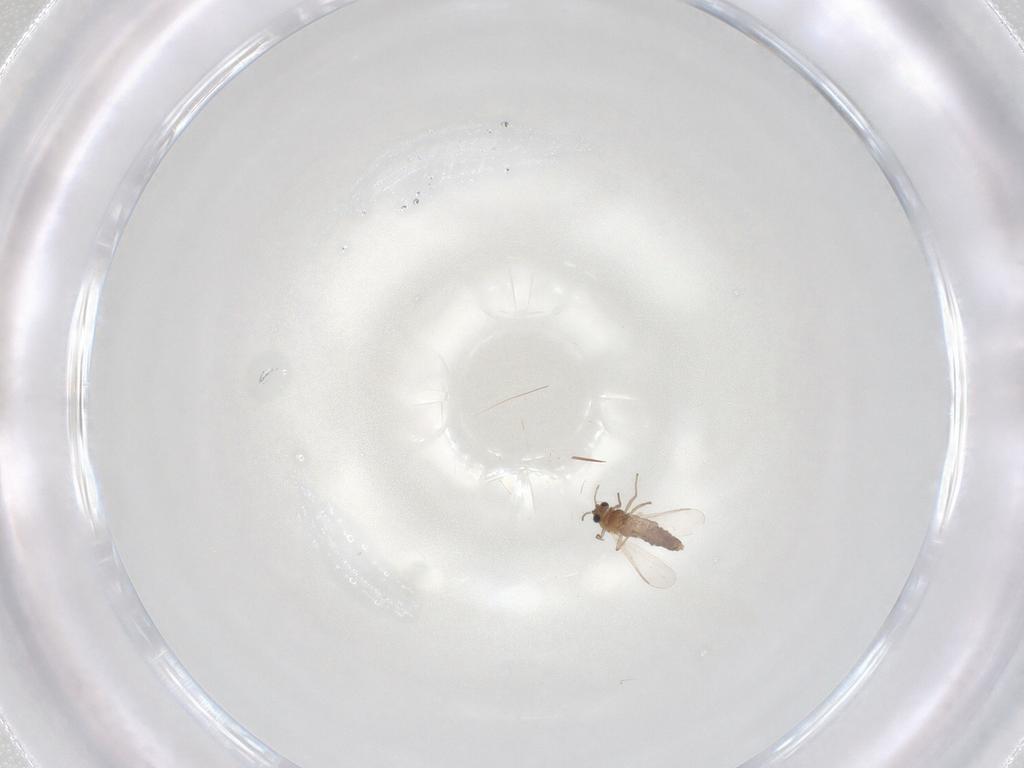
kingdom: Animalia
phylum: Arthropoda
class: Insecta
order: Diptera
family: Chironomidae
